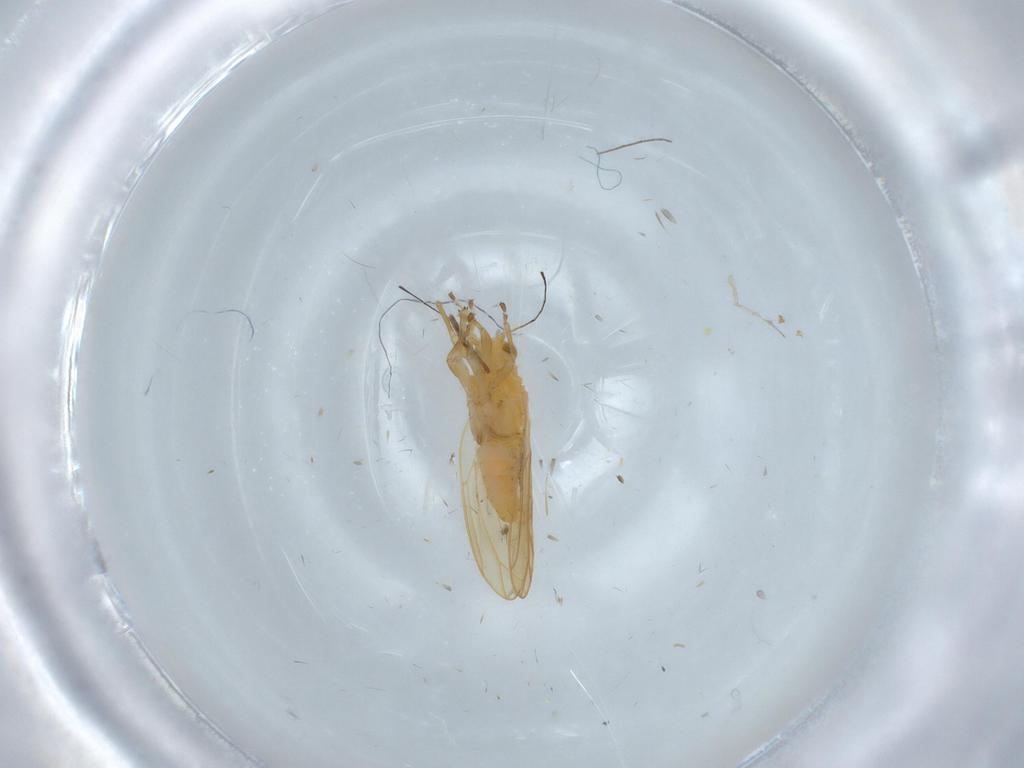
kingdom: Animalia
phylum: Arthropoda
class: Insecta
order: Hemiptera
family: Triozidae
